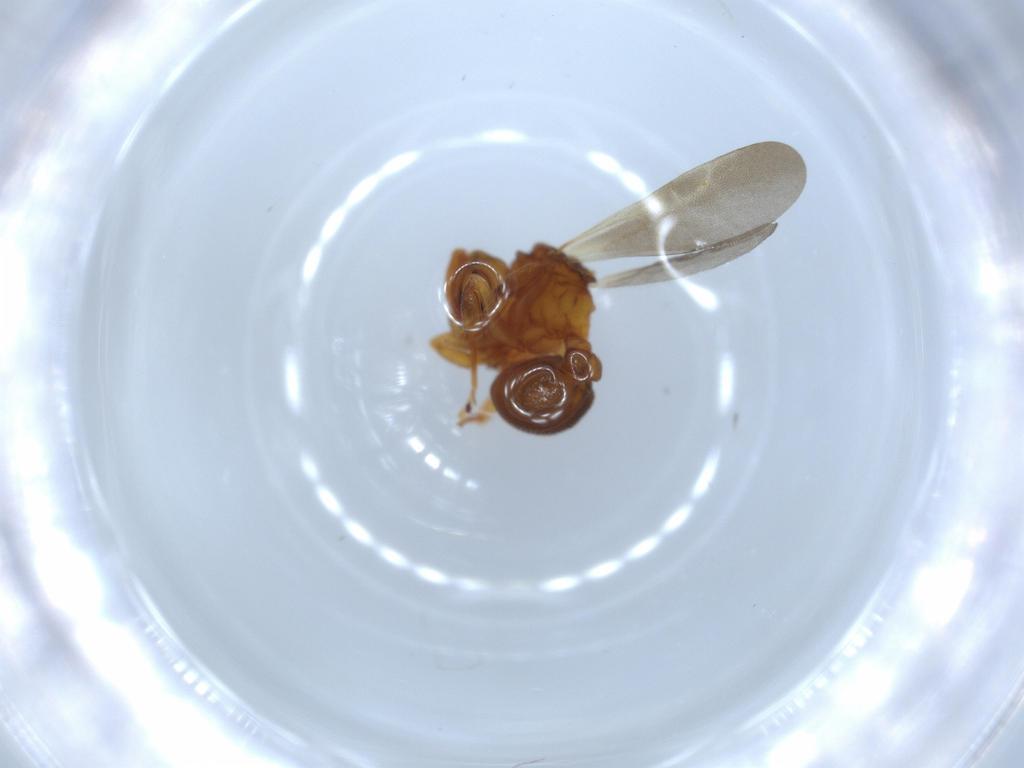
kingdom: Animalia
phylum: Arthropoda
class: Insecta
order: Hymenoptera
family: Formicidae
